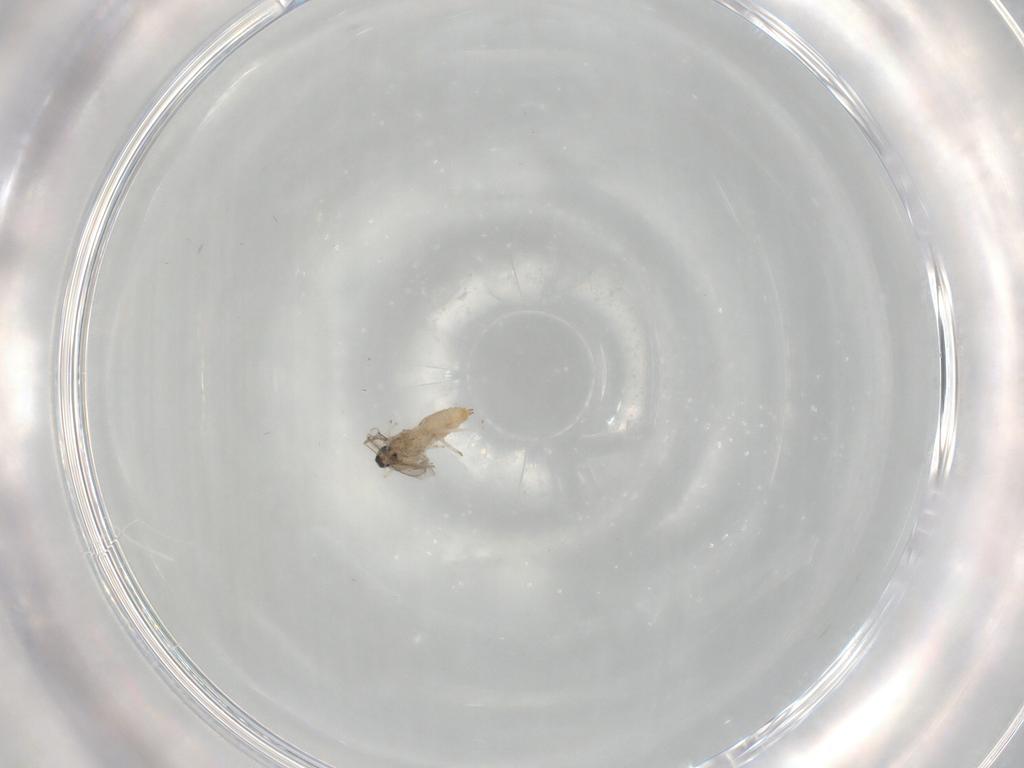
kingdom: Animalia
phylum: Arthropoda
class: Insecta
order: Diptera
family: Cecidomyiidae
